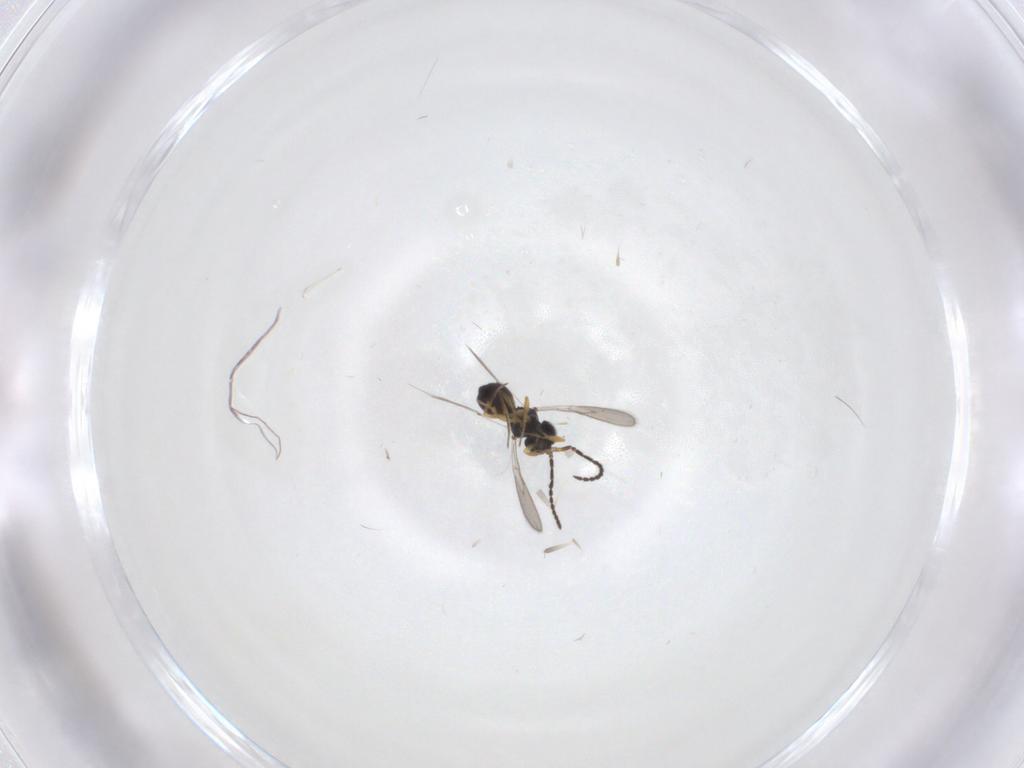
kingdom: Animalia
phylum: Arthropoda
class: Insecta
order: Hymenoptera
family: Scelionidae
